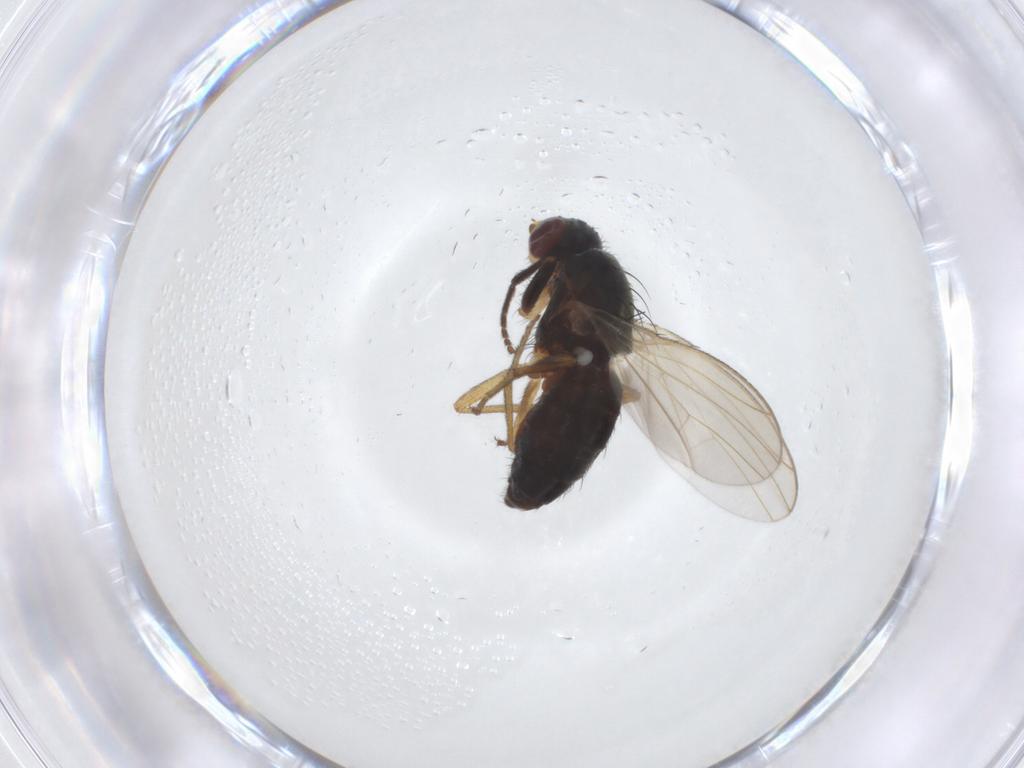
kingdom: Animalia
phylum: Arthropoda
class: Insecta
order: Diptera
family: Heleomyzidae
